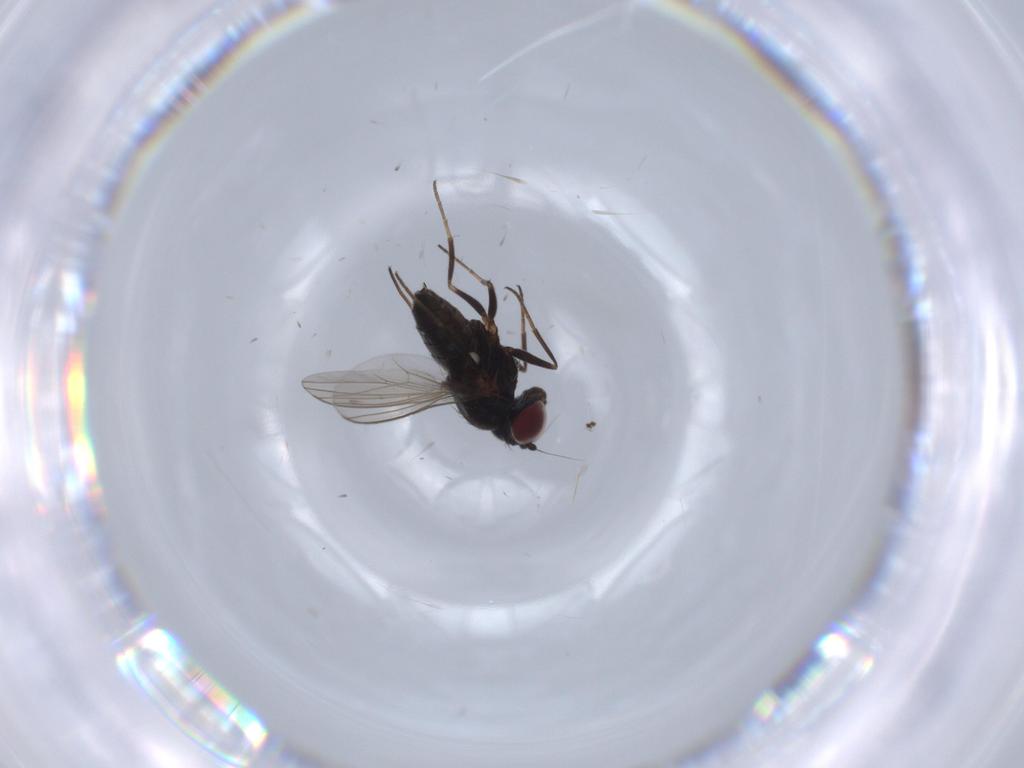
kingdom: Animalia
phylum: Arthropoda
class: Insecta
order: Diptera
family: Dolichopodidae
